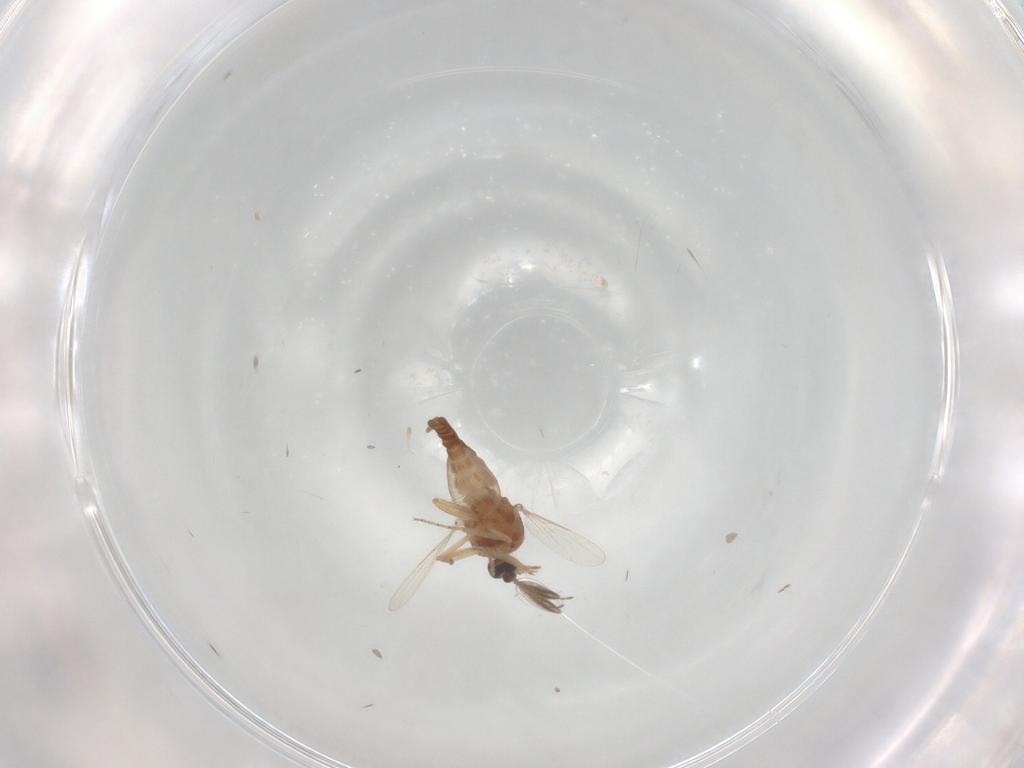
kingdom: Animalia
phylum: Arthropoda
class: Insecta
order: Diptera
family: Ceratopogonidae
